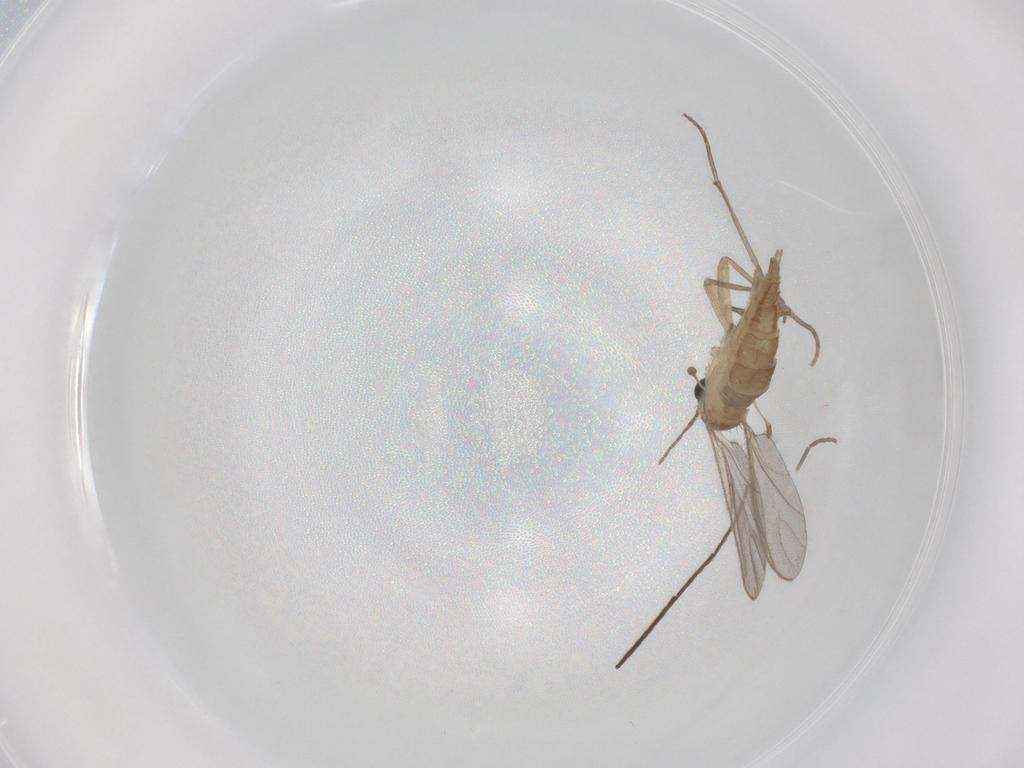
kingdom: Animalia
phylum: Arthropoda
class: Insecta
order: Diptera
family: Sciaridae
